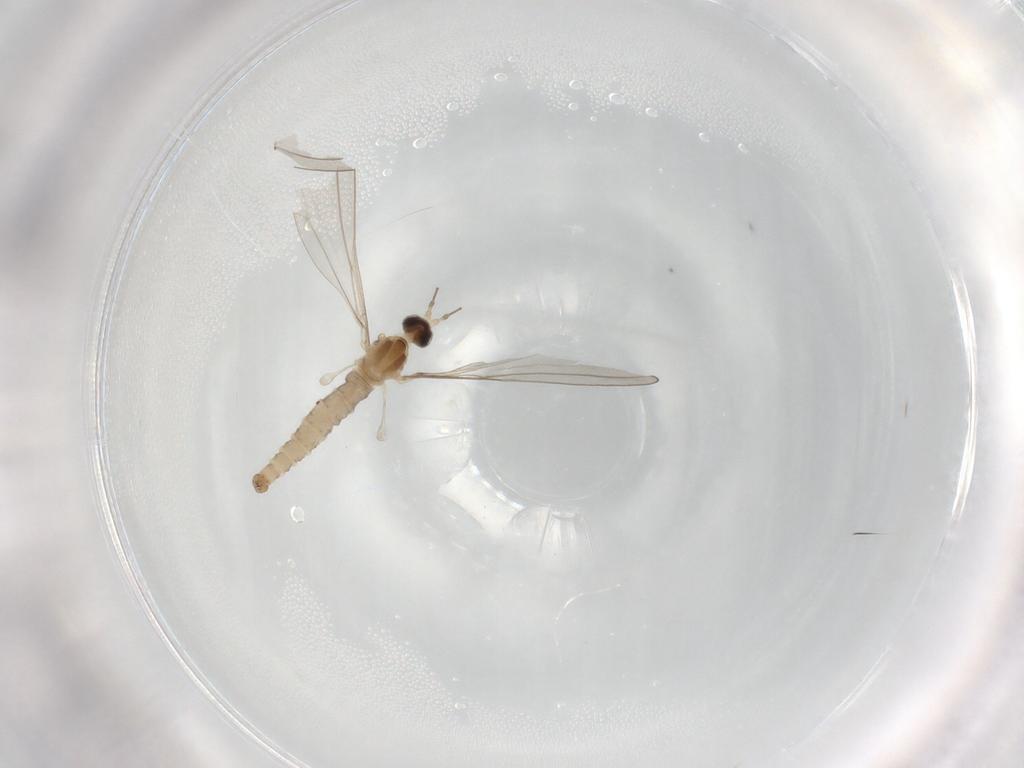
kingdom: Animalia
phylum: Arthropoda
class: Insecta
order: Diptera
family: Cecidomyiidae
